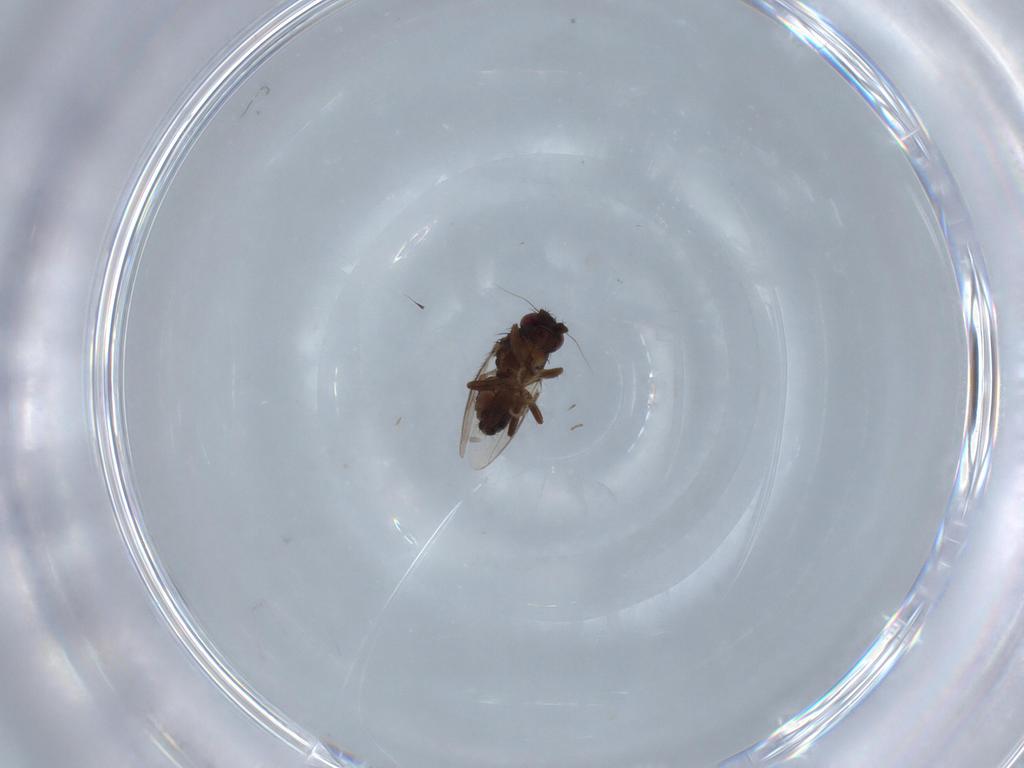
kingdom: Animalia
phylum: Arthropoda
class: Insecta
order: Diptera
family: Sphaeroceridae
